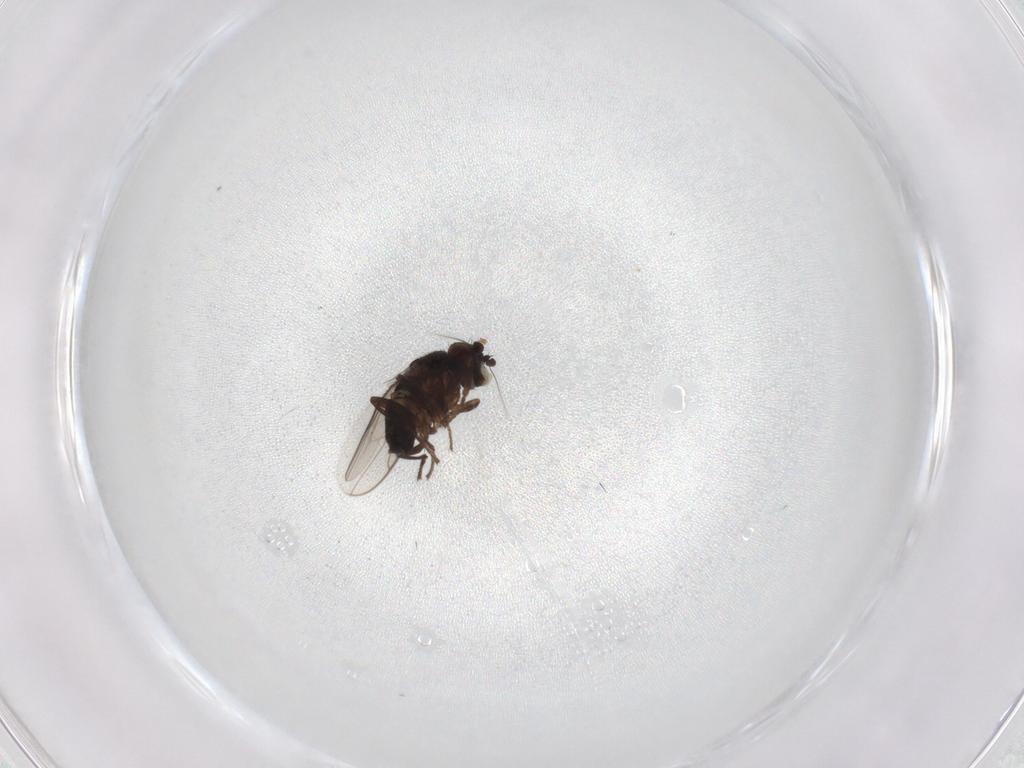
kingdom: Animalia
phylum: Arthropoda
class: Insecta
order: Diptera
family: Sphaeroceridae
